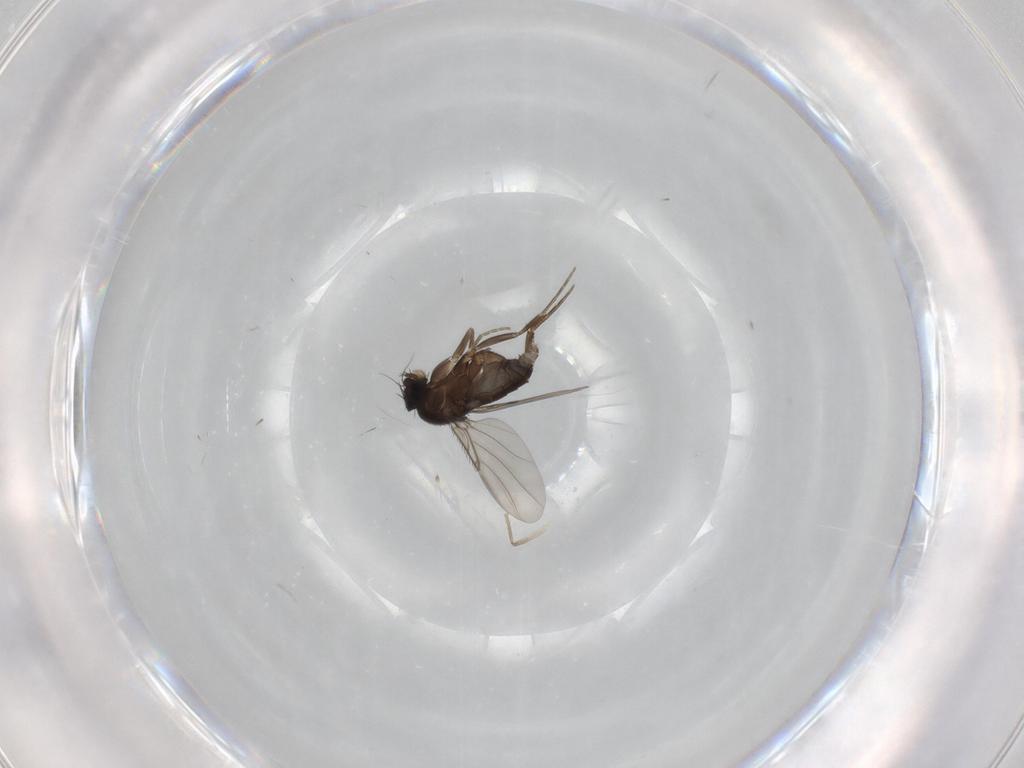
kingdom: Animalia
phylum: Arthropoda
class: Insecta
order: Diptera
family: Phoridae
